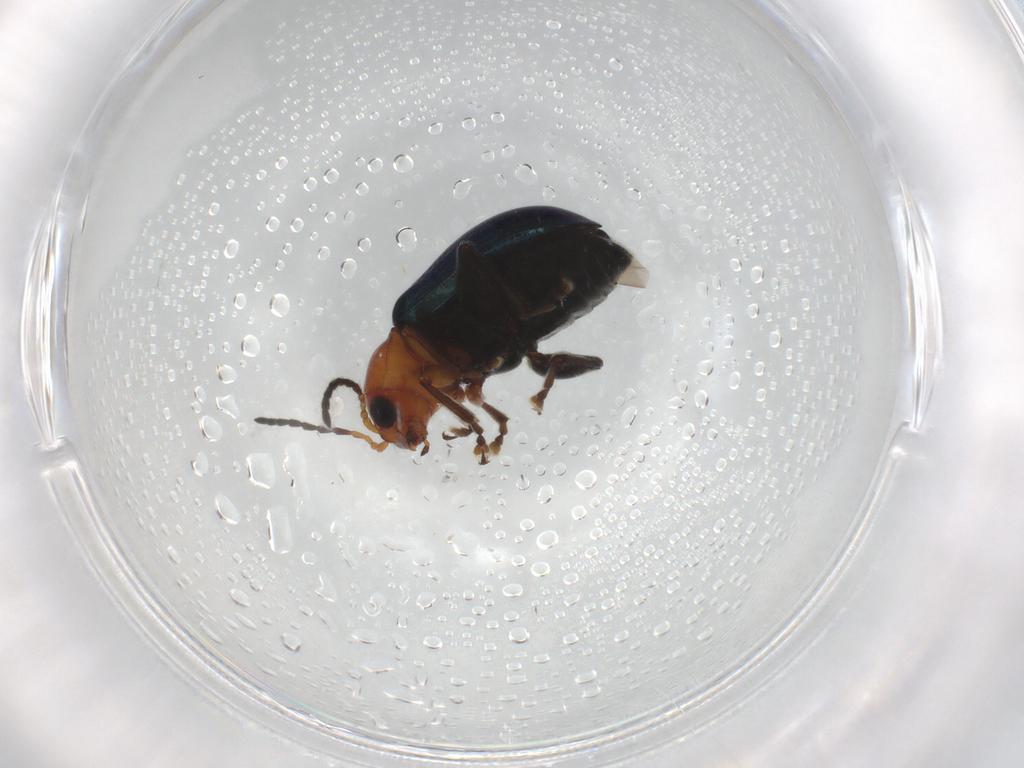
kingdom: Animalia
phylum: Arthropoda
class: Insecta
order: Coleoptera
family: Chrysomelidae
